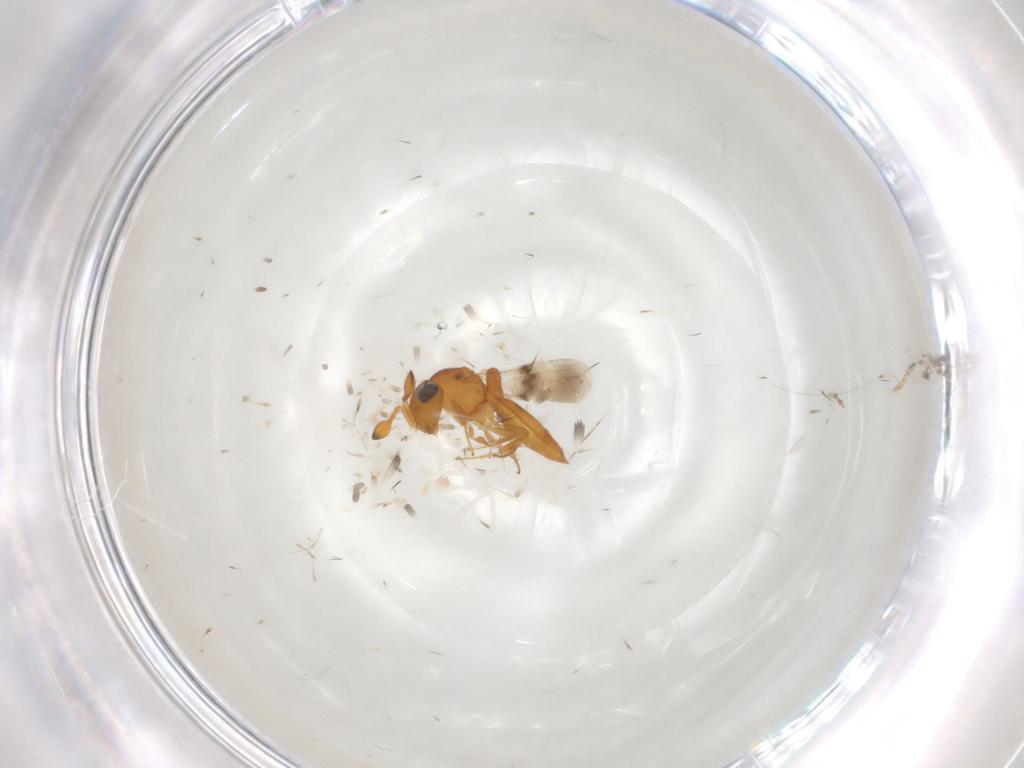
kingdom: Animalia
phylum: Arthropoda
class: Insecta
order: Hymenoptera
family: Scelionidae
